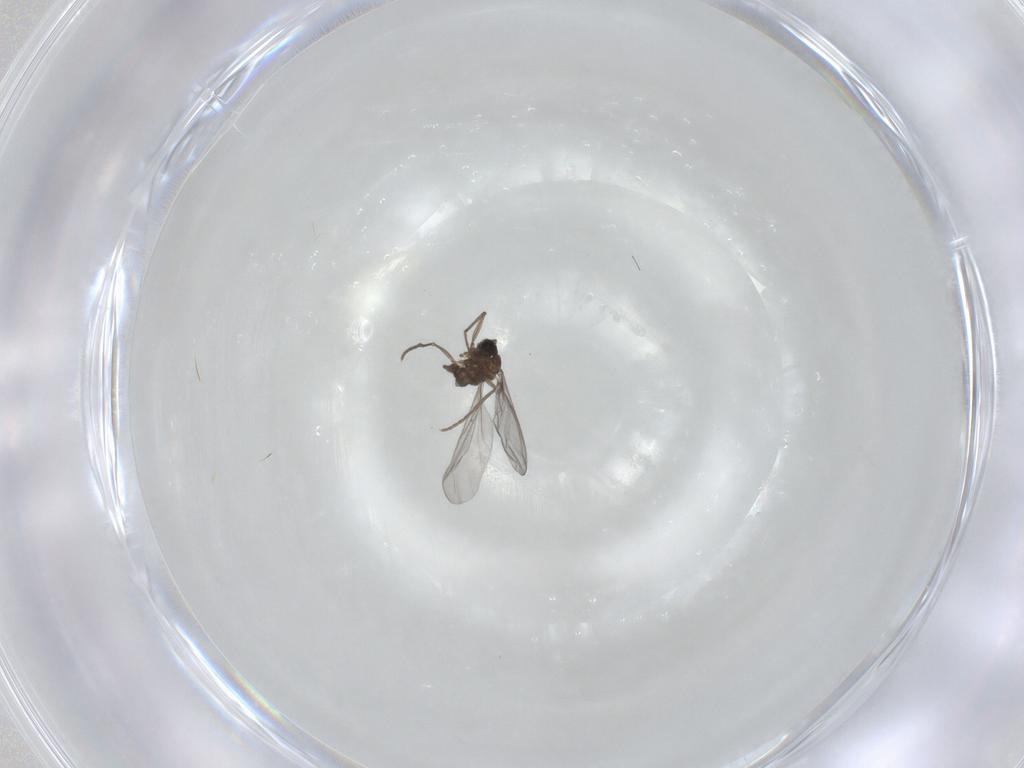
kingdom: Animalia
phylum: Arthropoda
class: Insecta
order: Diptera
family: Sciaridae
